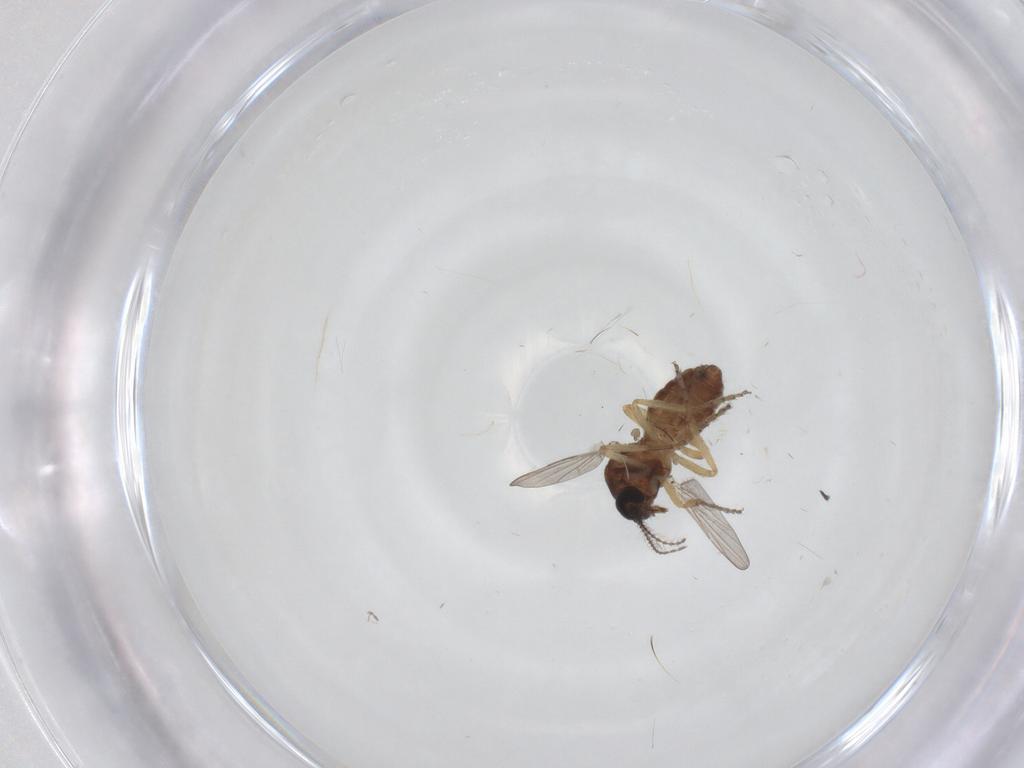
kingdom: Animalia
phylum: Arthropoda
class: Insecta
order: Diptera
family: Ceratopogonidae
